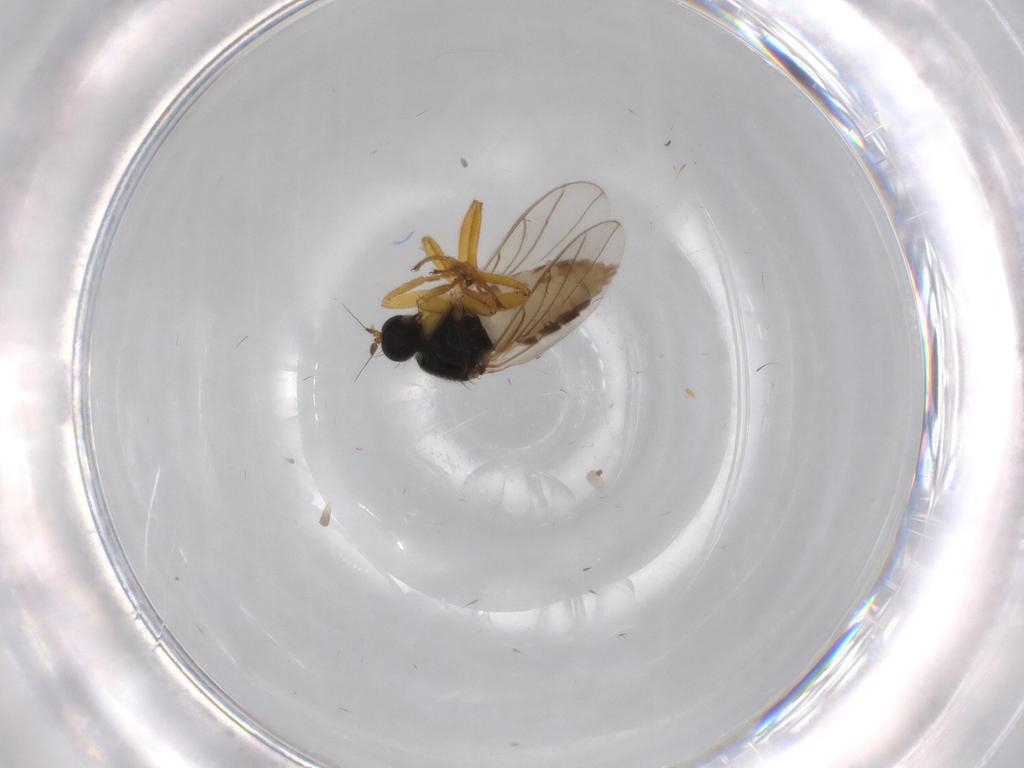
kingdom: Animalia
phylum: Arthropoda
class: Insecta
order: Diptera
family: Hybotidae
